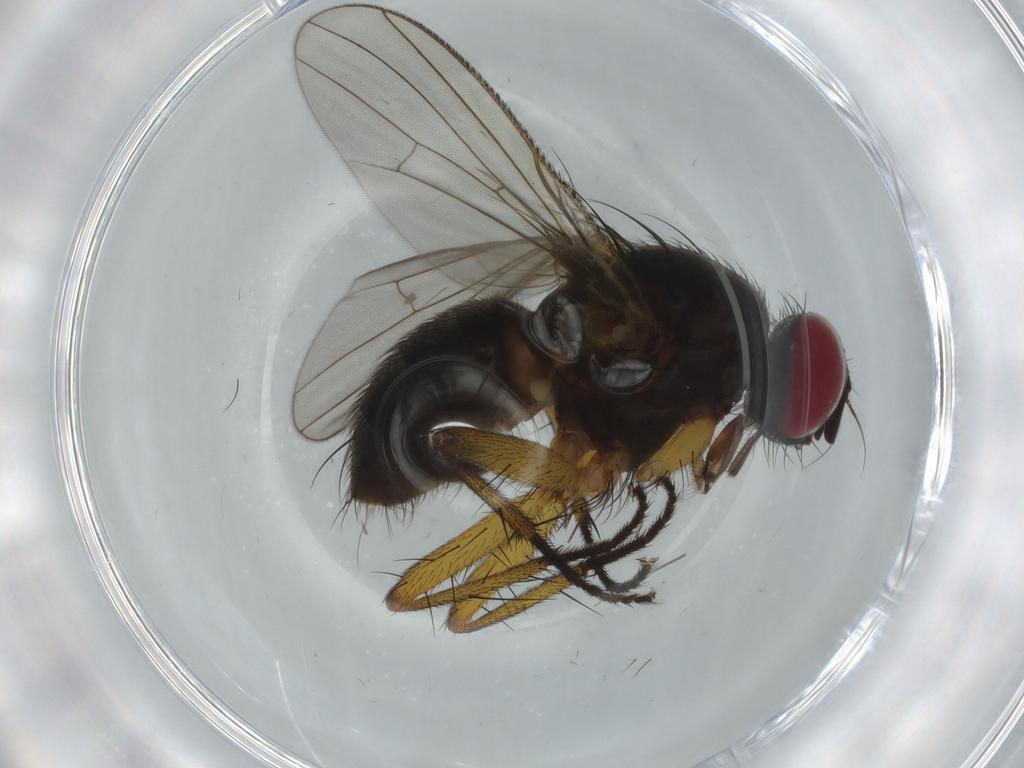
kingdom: Animalia
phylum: Arthropoda
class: Insecta
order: Diptera
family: Muscidae
